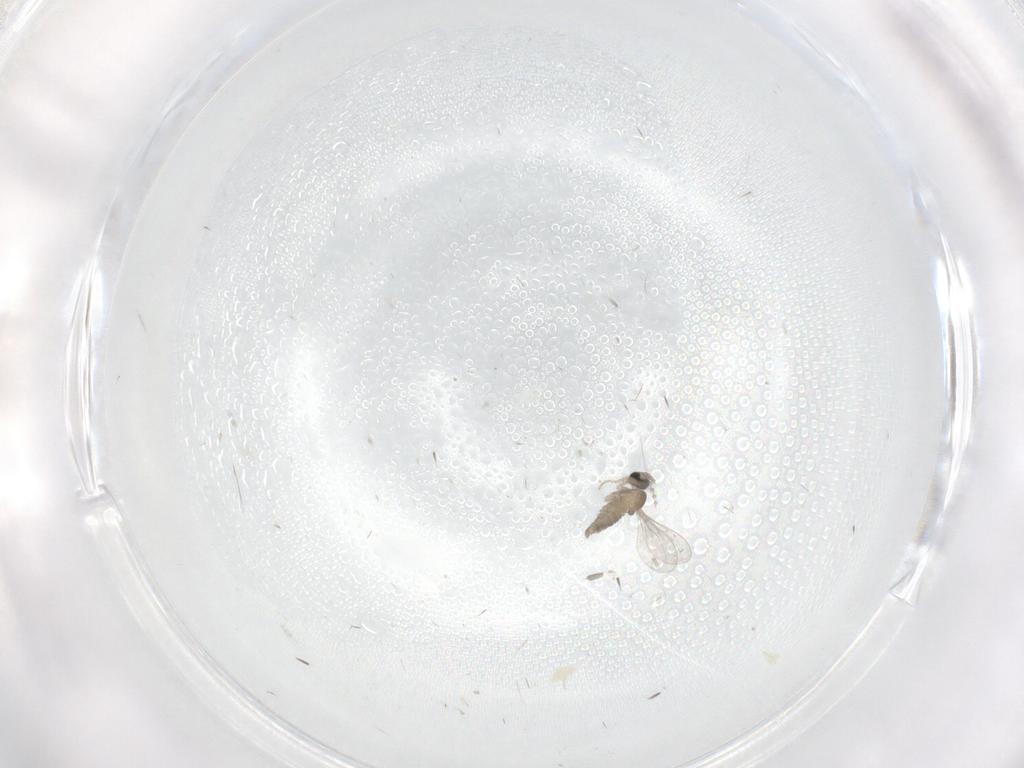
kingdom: Animalia
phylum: Arthropoda
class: Insecta
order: Diptera
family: Cecidomyiidae
